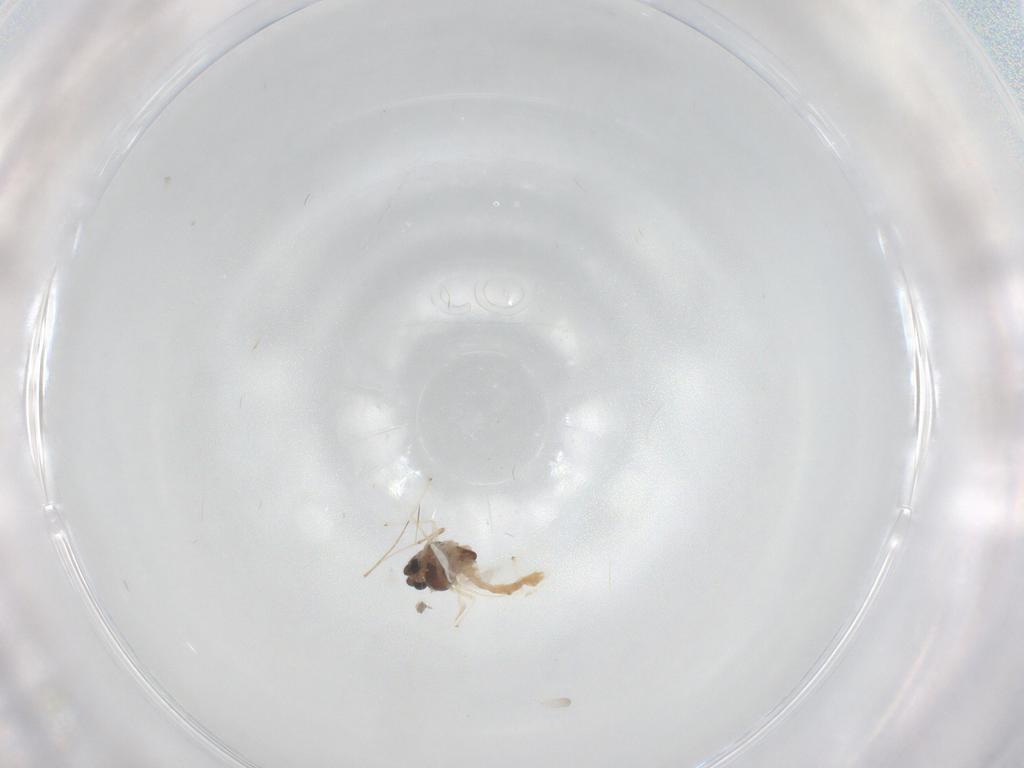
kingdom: Animalia
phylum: Arthropoda
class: Insecta
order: Diptera
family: Chironomidae
